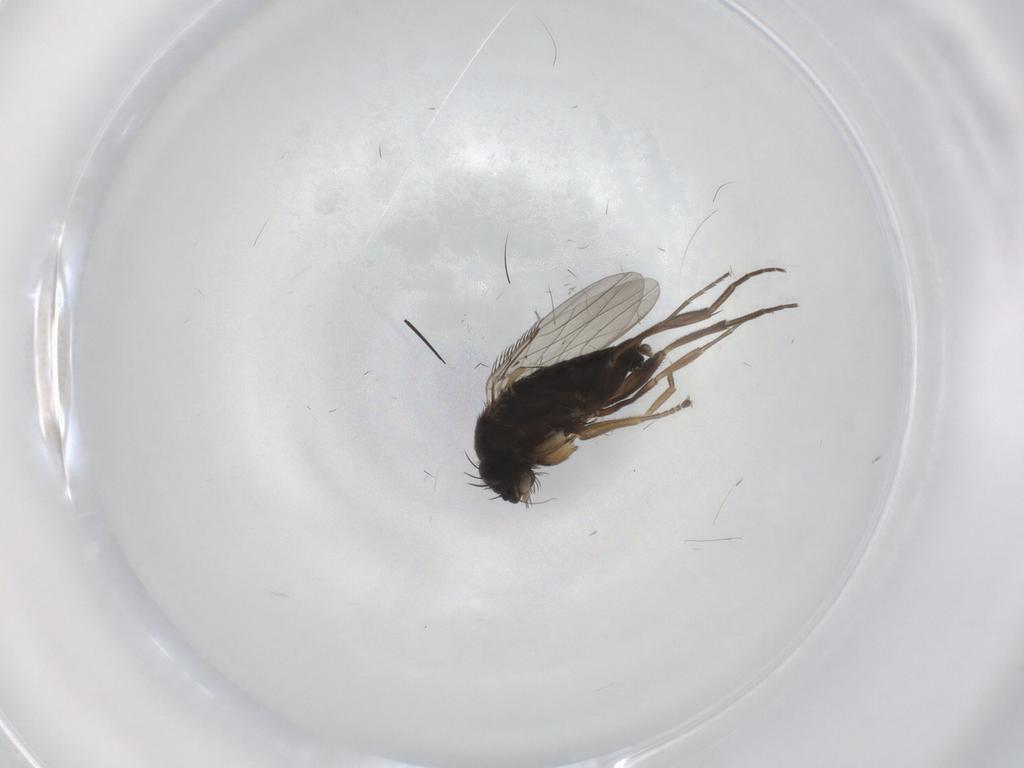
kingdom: Animalia
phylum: Arthropoda
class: Insecta
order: Diptera
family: Phoridae
